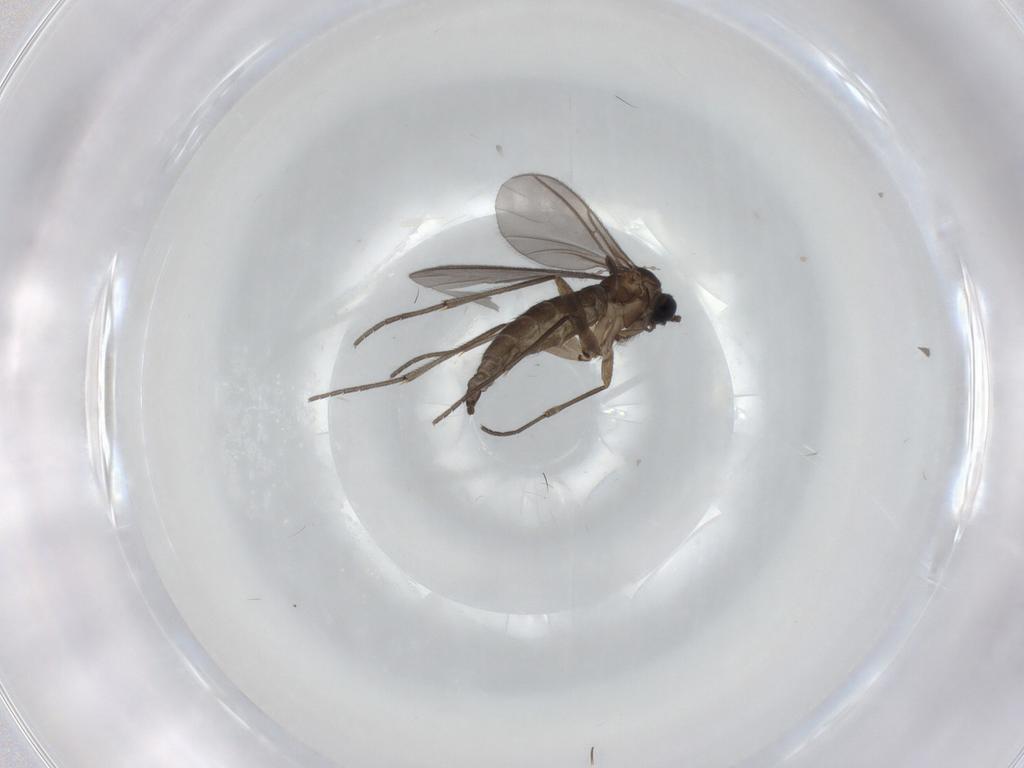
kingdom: Animalia
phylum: Arthropoda
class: Insecta
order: Diptera
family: Sciaridae
